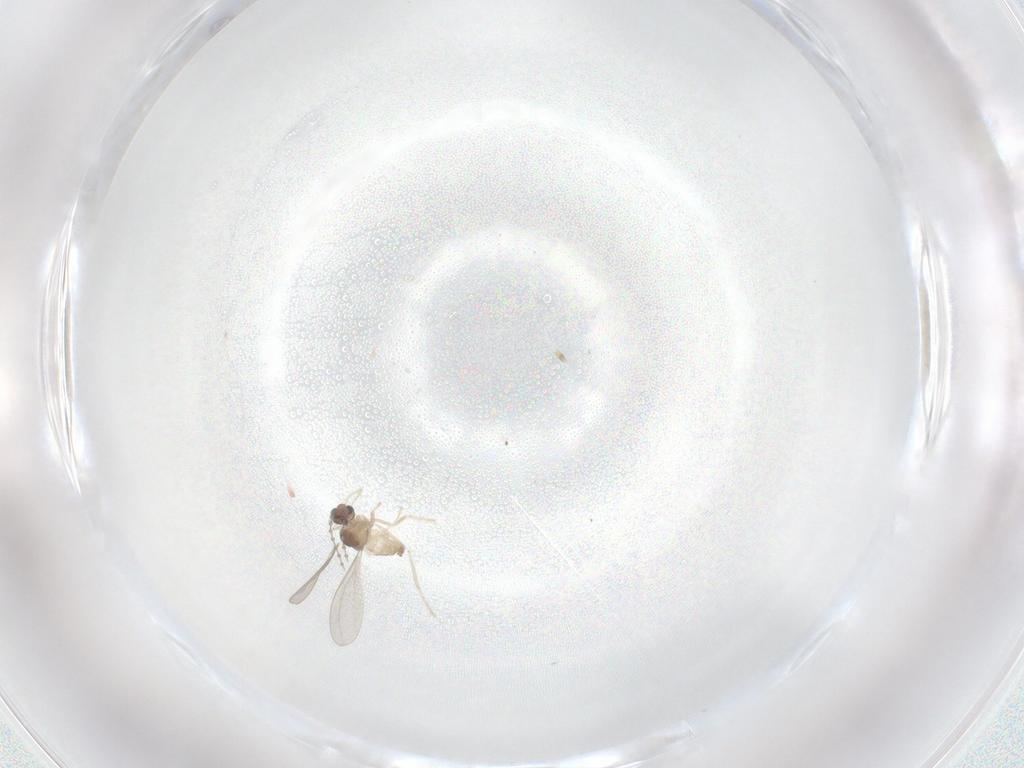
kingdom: Animalia
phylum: Arthropoda
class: Insecta
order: Diptera
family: Cecidomyiidae
